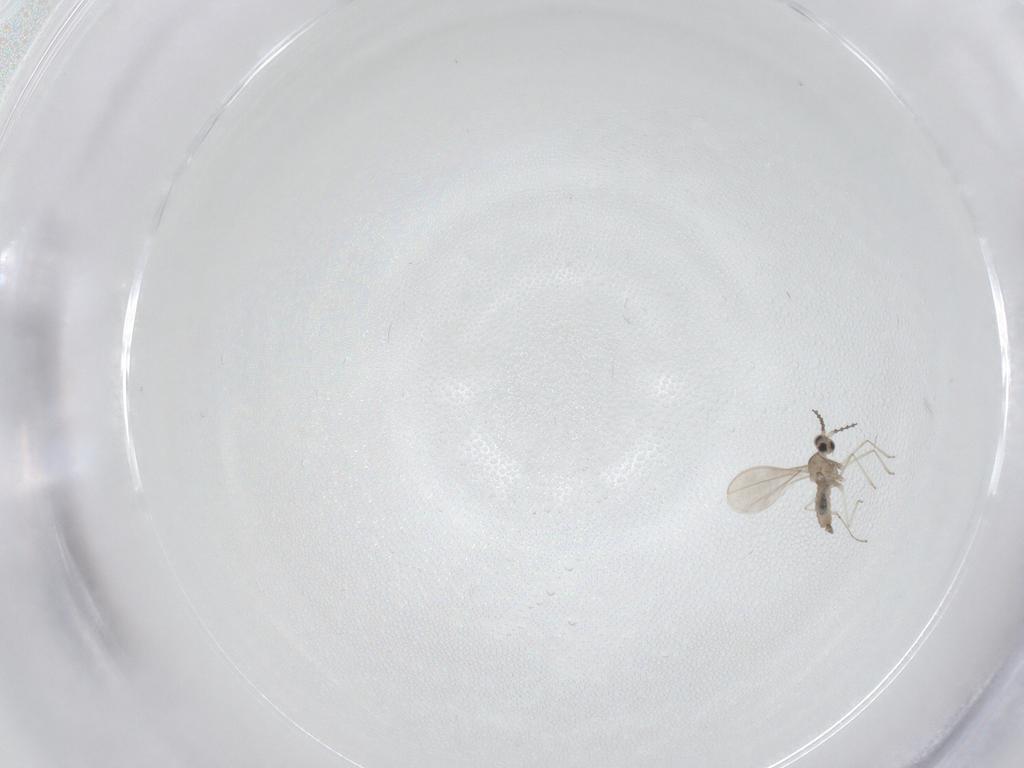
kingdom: Animalia
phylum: Arthropoda
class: Insecta
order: Diptera
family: Cecidomyiidae
